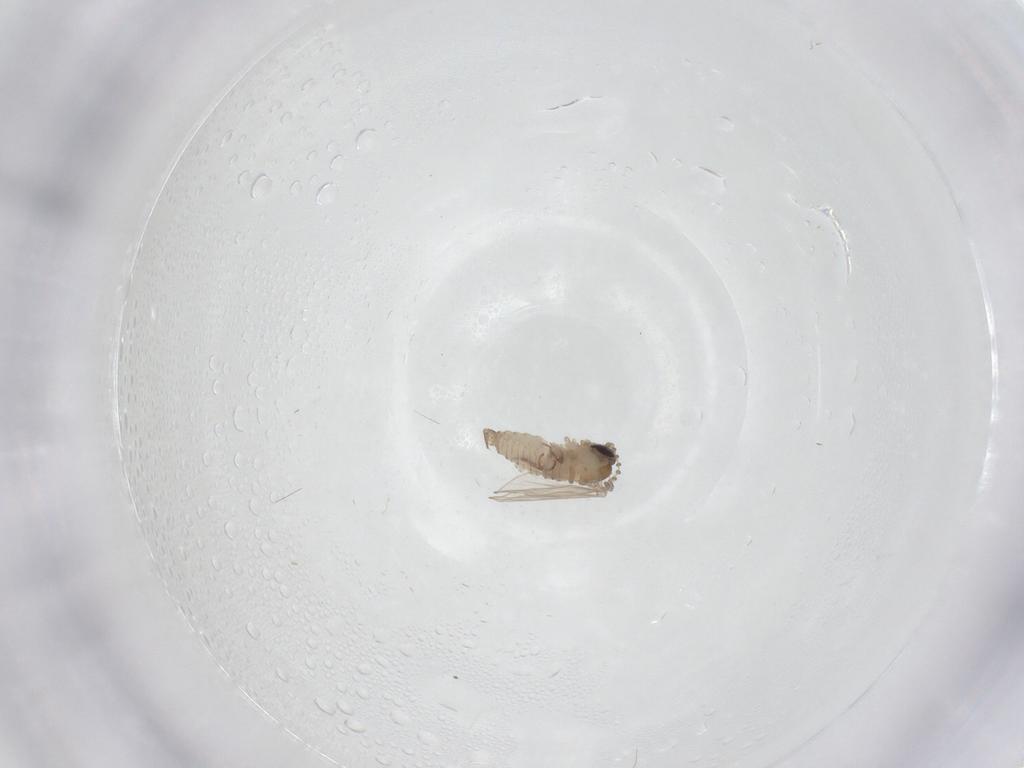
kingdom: Animalia
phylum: Arthropoda
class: Insecta
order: Diptera
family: Psychodidae
